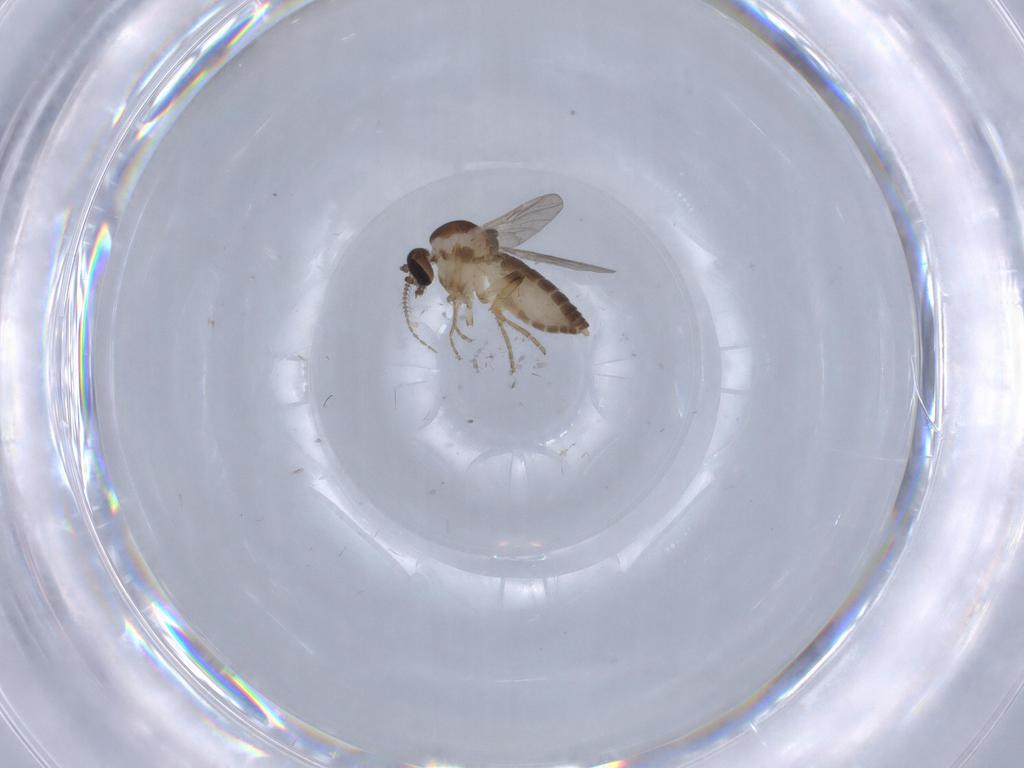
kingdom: Animalia
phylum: Arthropoda
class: Insecta
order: Diptera
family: Ceratopogonidae
